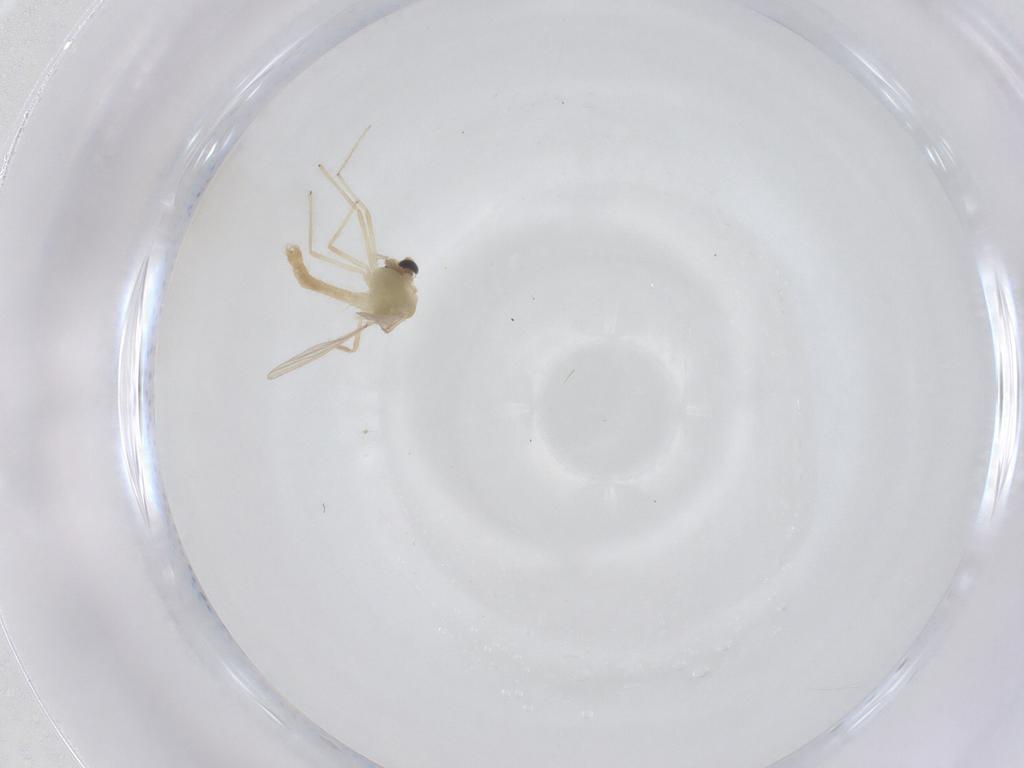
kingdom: Animalia
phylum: Arthropoda
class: Insecta
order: Diptera
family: Chironomidae
